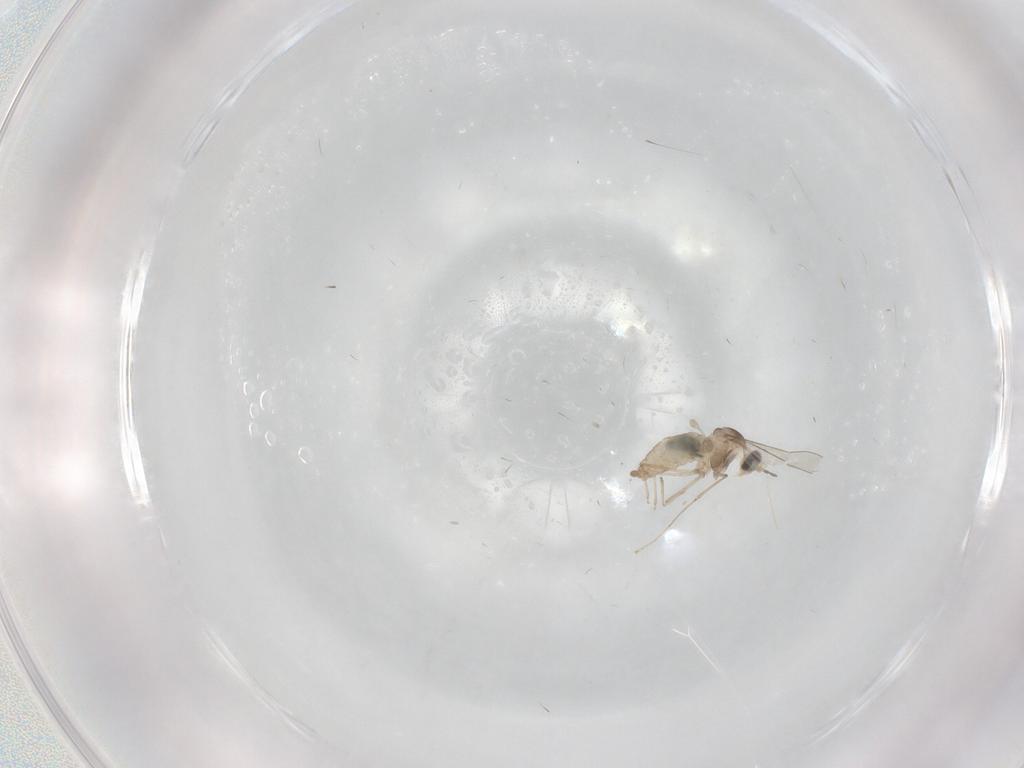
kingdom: Animalia
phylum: Arthropoda
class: Insecta
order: Diptera
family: Cecidomyiidae
